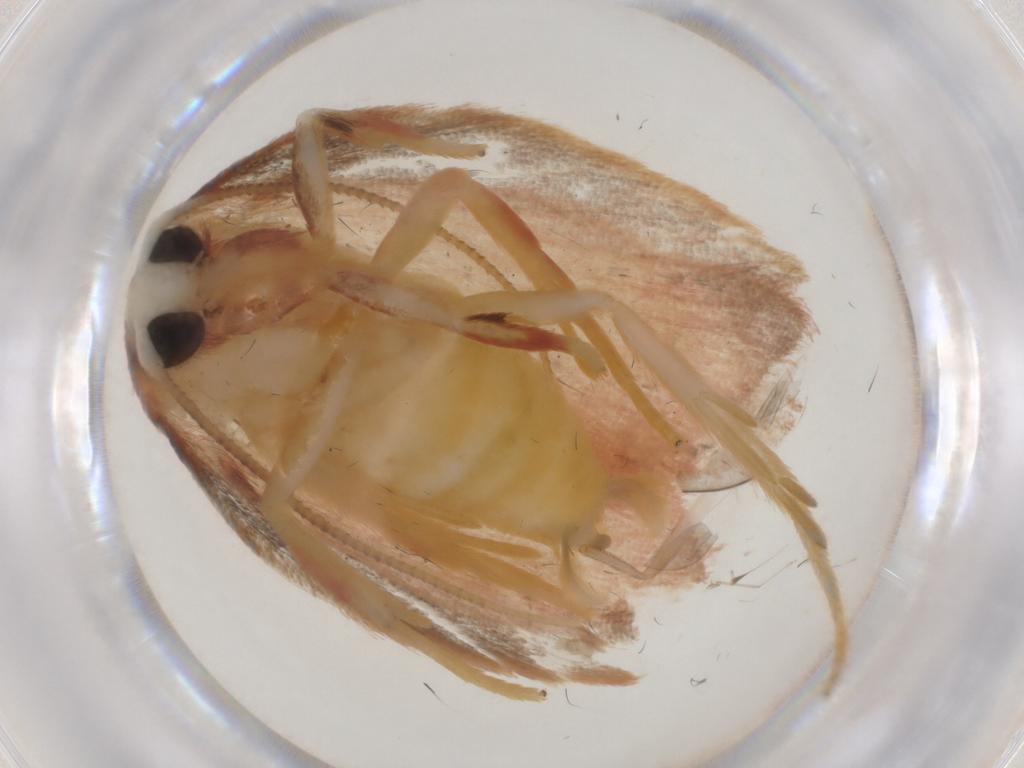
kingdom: Animalia
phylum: Arthropoda
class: Insecta
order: Lepidoptera
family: Depressariidae
